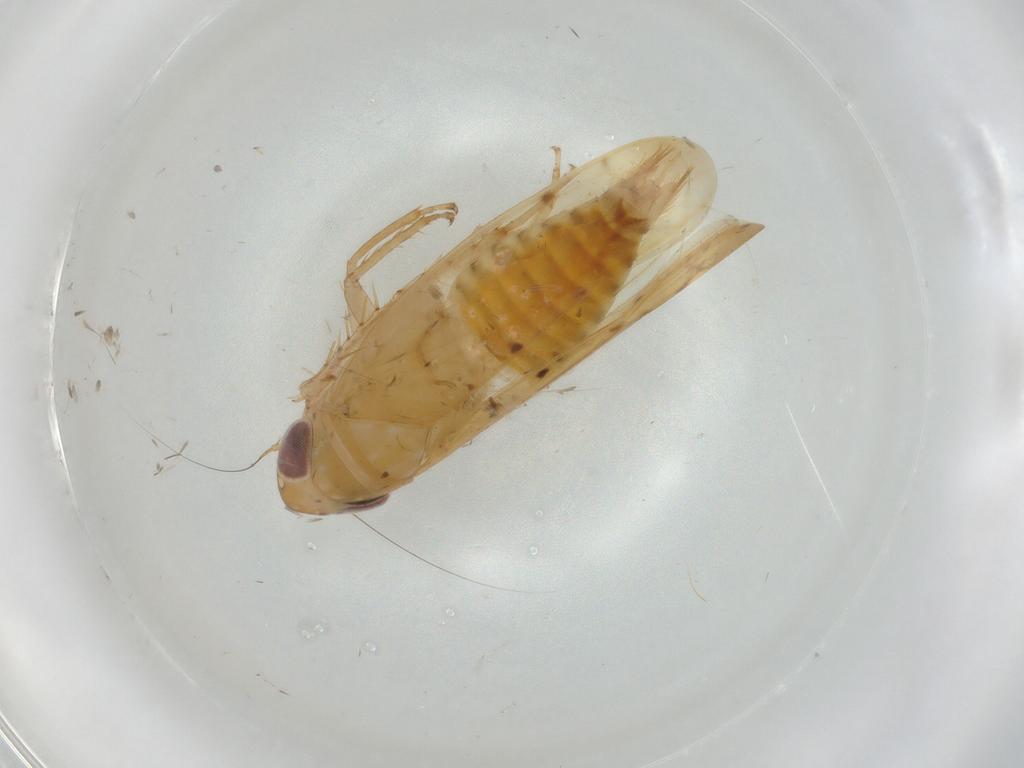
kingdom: Animalia
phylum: Arthropoda
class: Insecta
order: Hemiptera
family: Cicadellidae
